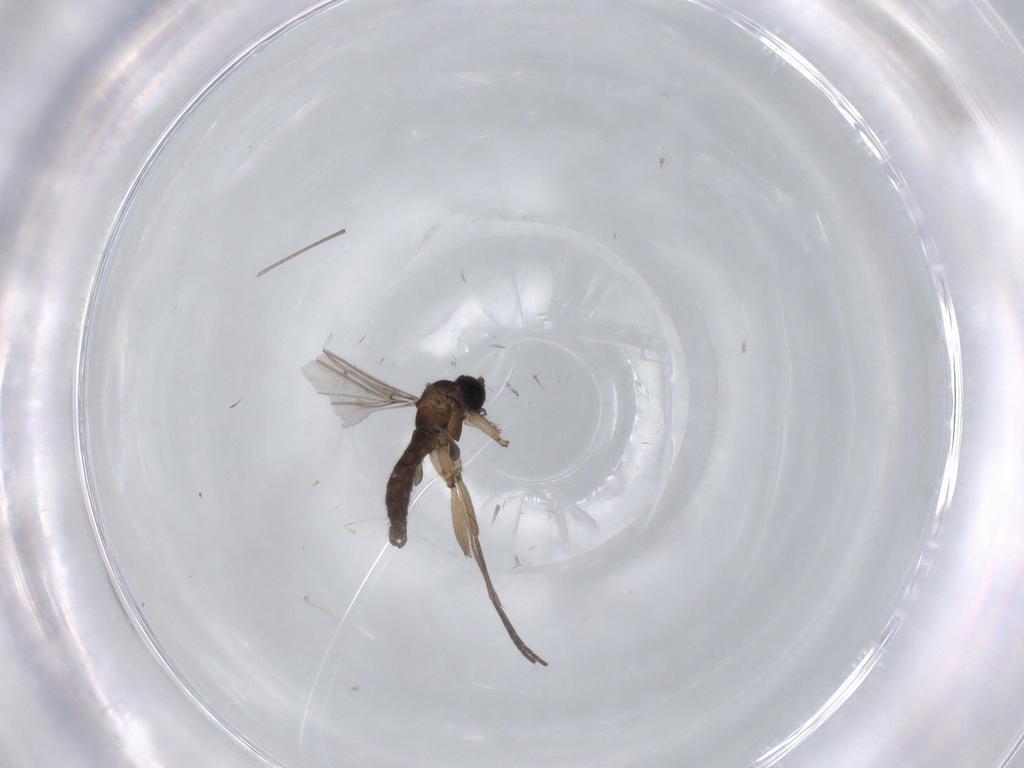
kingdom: Animalia
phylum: Arthropoda
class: Insecta
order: Diptera
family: Sciaridae
